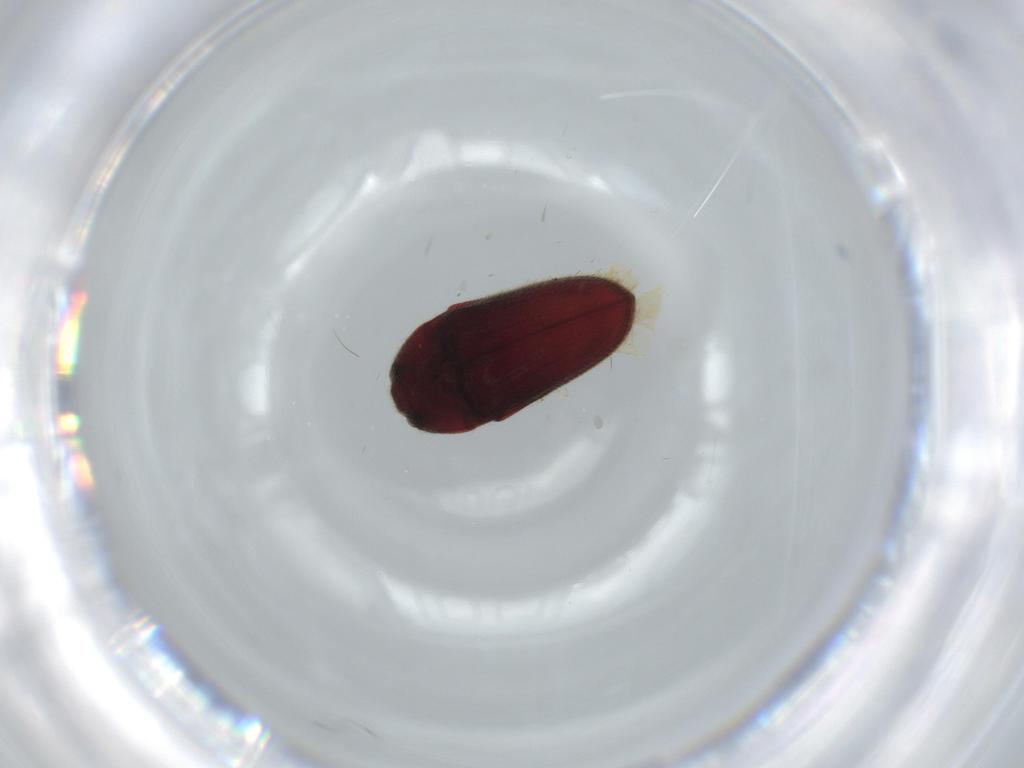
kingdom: Animalia
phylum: Arthropoda
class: Insecta
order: Coleoptera
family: Throscidae
